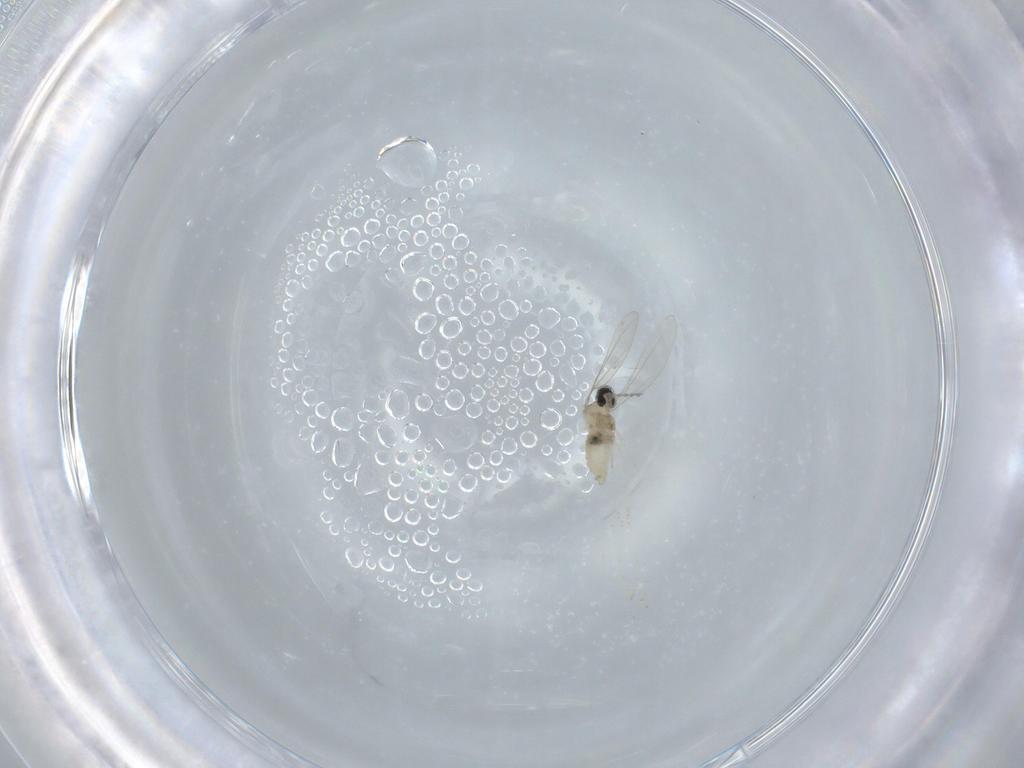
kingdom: Animalia
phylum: Arthropoda
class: Insecta
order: Diptera
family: Cecidomyiidae
